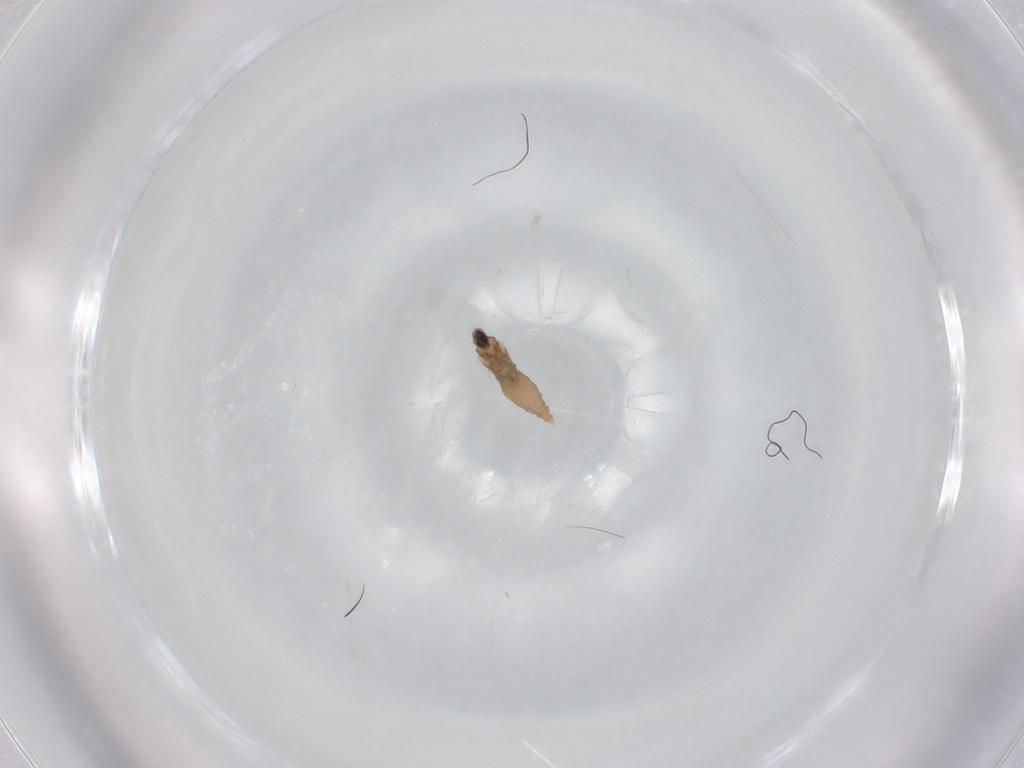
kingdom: Animalia
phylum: Arthropoda
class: Insecta
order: Diptera
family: Cecidomyiidae
